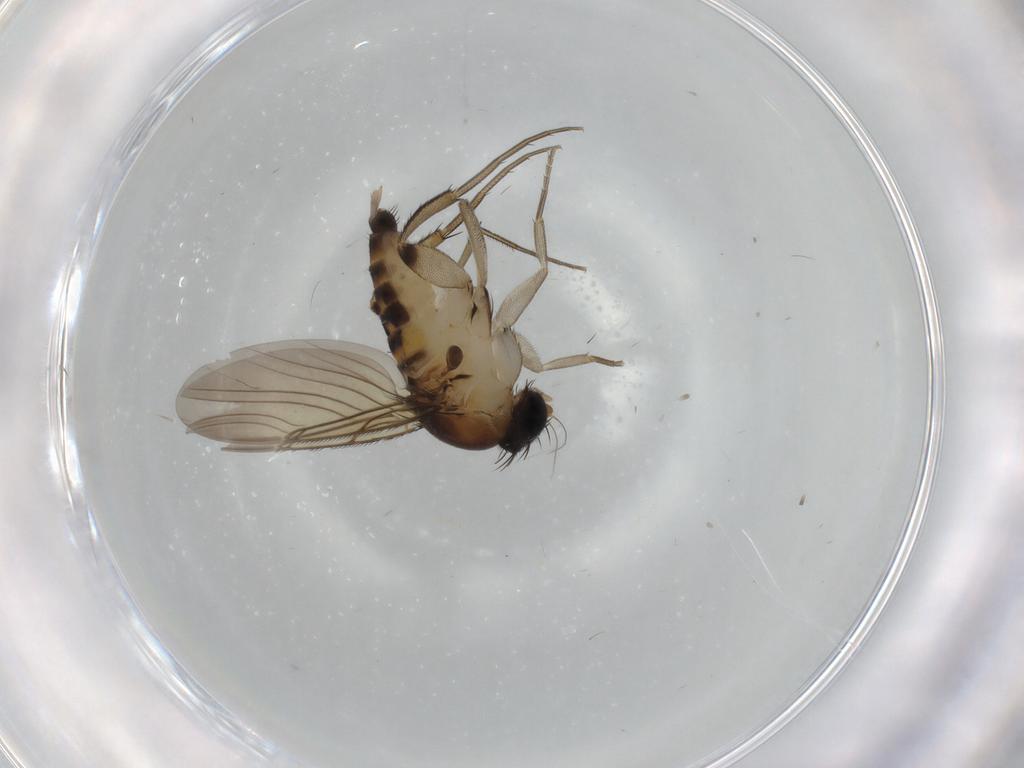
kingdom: Animalia
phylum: Arthropoda
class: Insecta
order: Diptera
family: Phoridae
